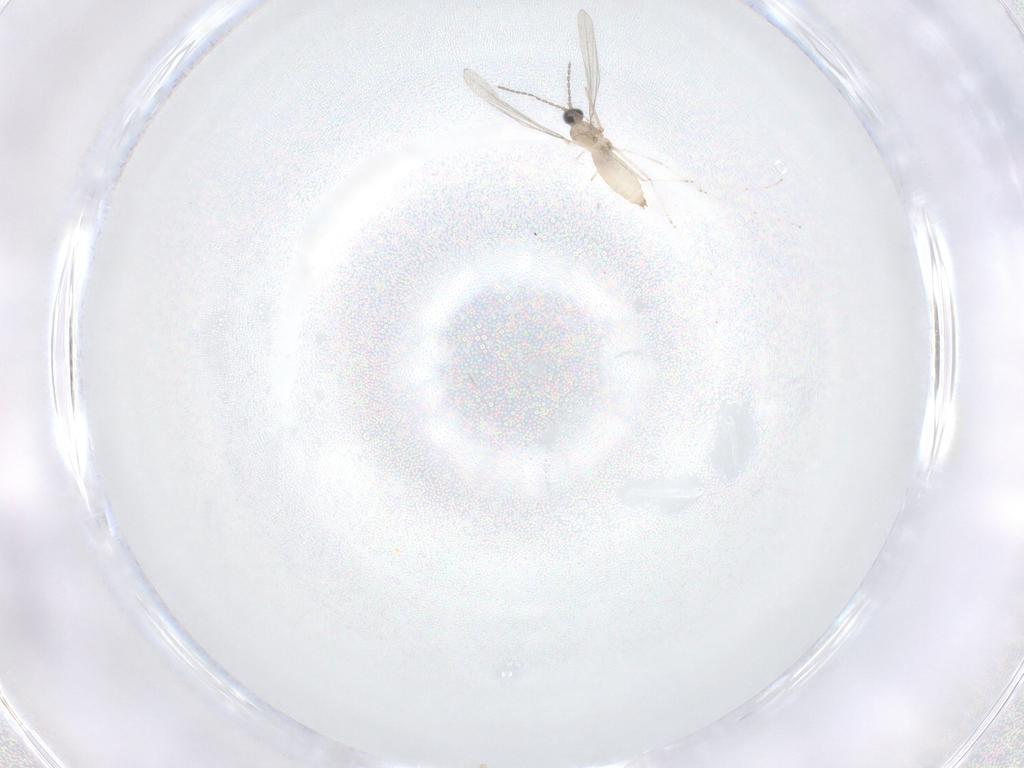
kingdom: Animalia
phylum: Arthropoda
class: Insecta
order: Diptera
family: Sciaridae
